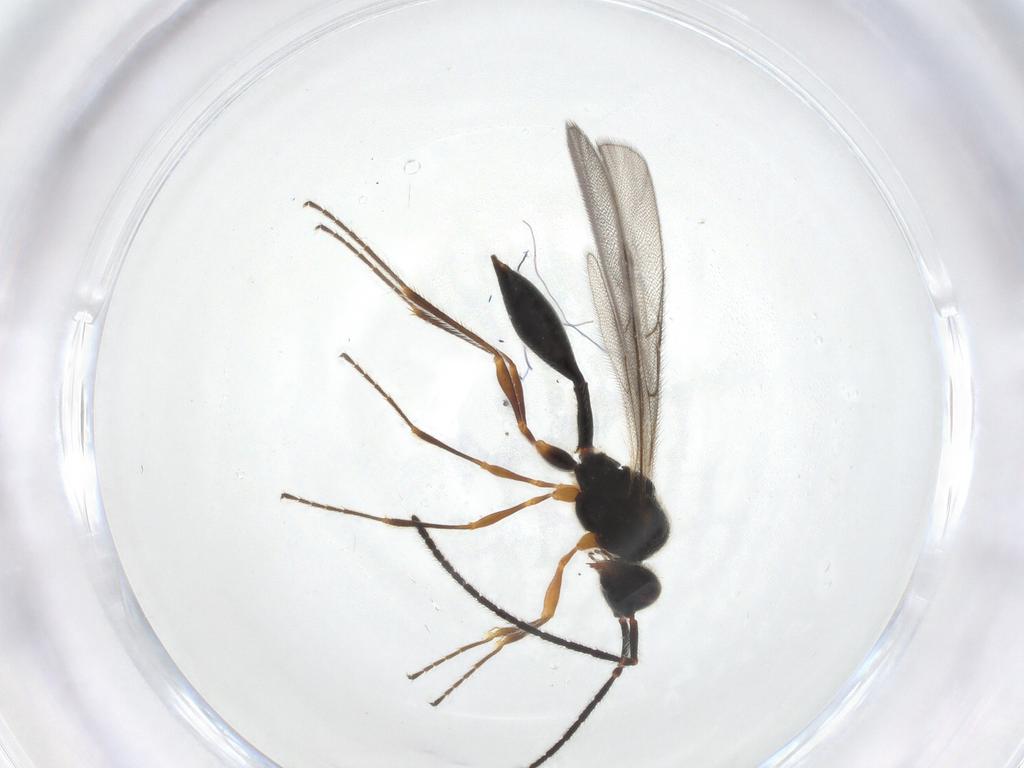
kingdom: Animalia
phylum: Arthropoda
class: Insecta
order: Hymenoptera
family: Diapriidae
